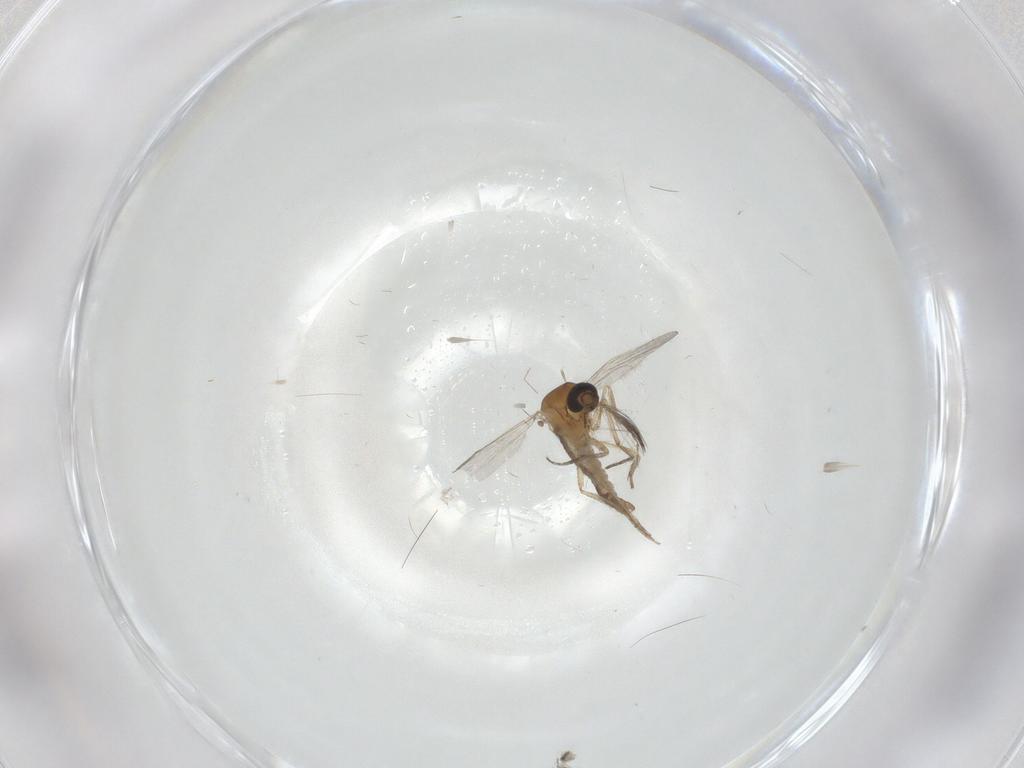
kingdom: Animalia
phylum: Arthropoda
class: Insecta
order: Diptera
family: Ceratopogonidae
